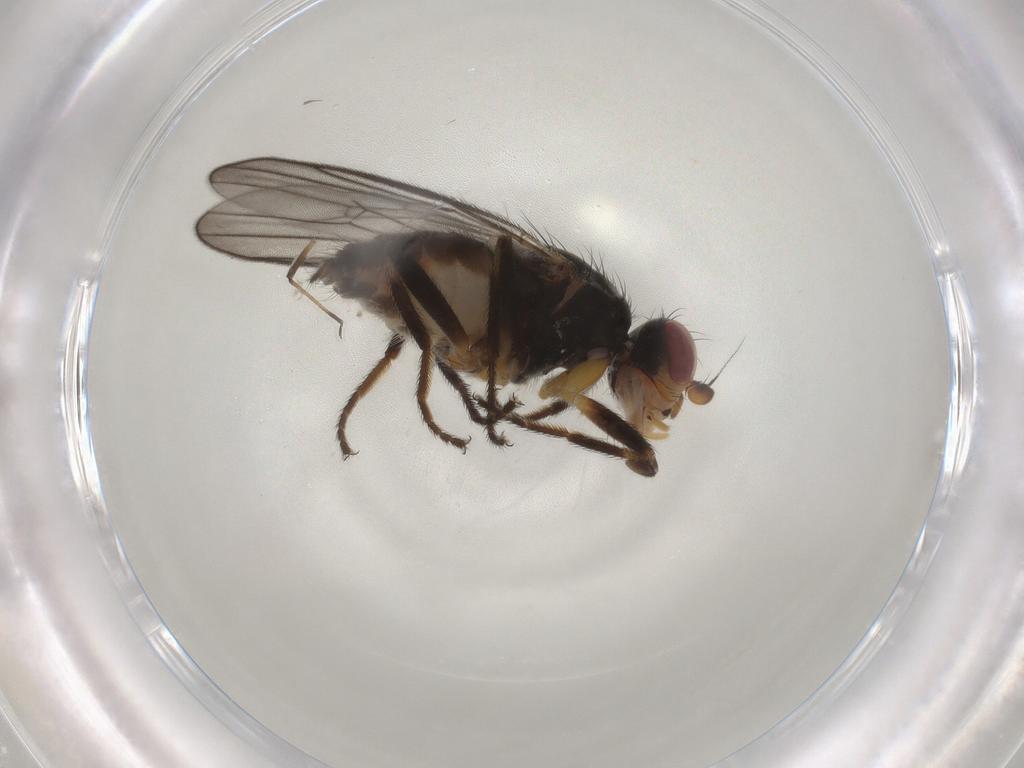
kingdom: Animalia
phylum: Arthropoda
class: Insecta
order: Diptera
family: Chloropidae
